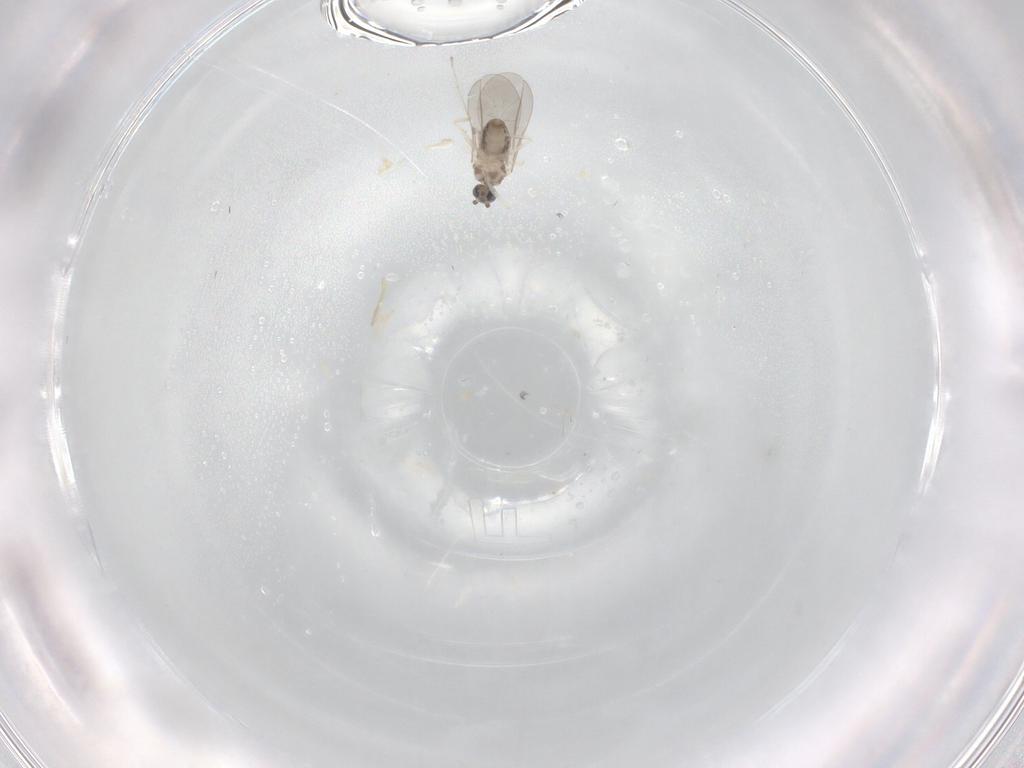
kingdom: Animalia
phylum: Arthropoda
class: Insecta
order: Diptera
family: Cecidomyiidae
